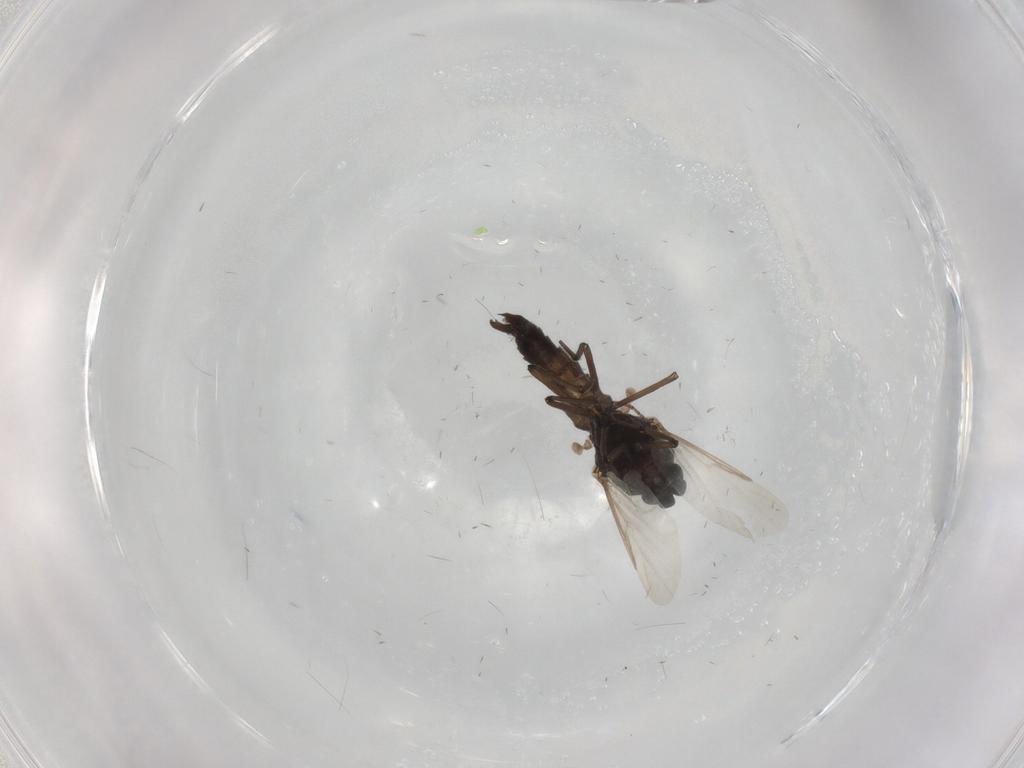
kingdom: Animalia
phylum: Arthropoda
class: Insecta
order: Diptera
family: Ceratopogonidae
